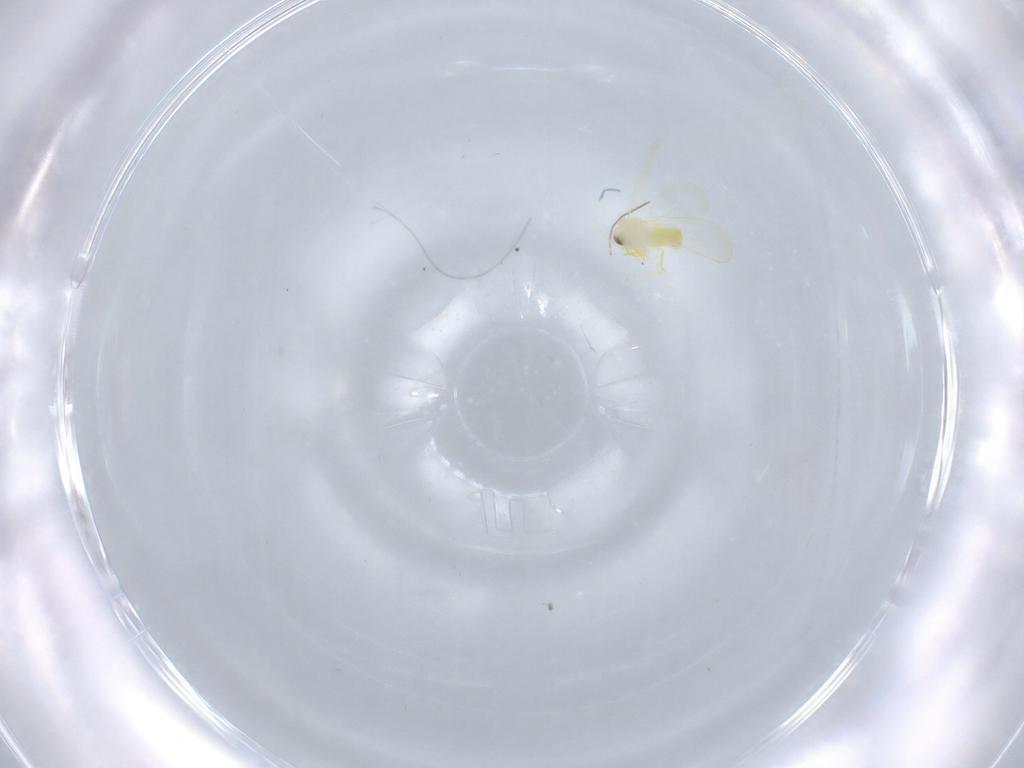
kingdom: Animalia
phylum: Arthropoda
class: Insecta
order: Hemiptera
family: Aleyrodidae
